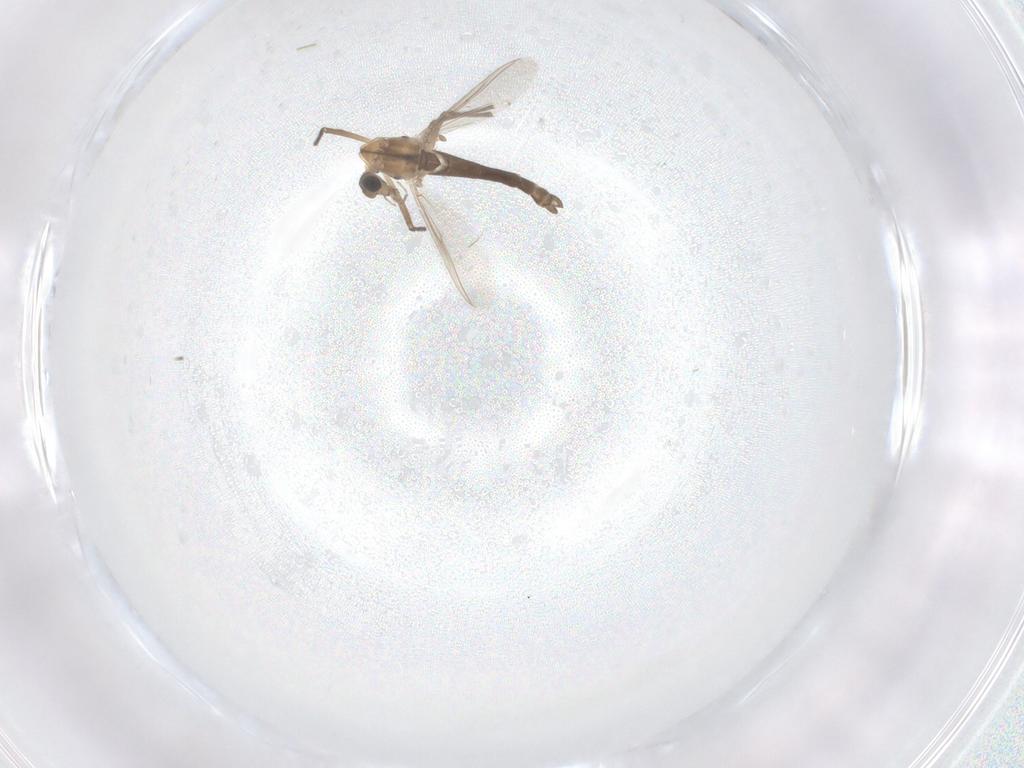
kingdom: Animalia
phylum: Arthropoda
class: Insecta
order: Diptera
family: Chironomidae
